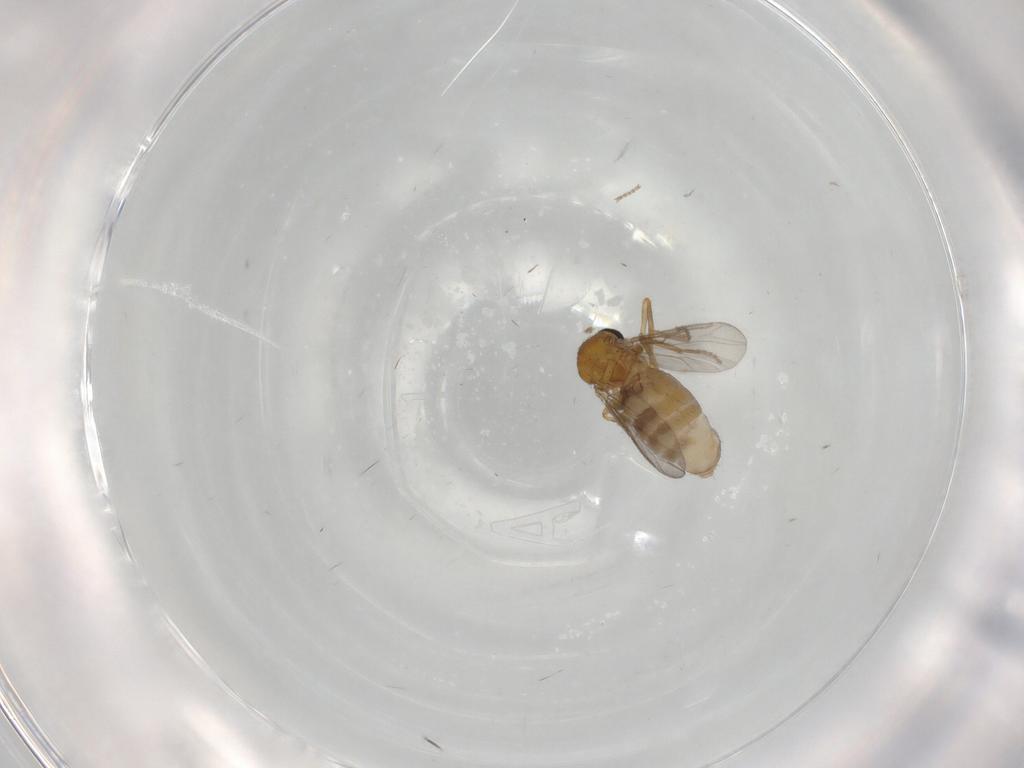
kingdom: Animalia
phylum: Arthropoda
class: Insecta
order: Diptera
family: Ceratopogonidae
